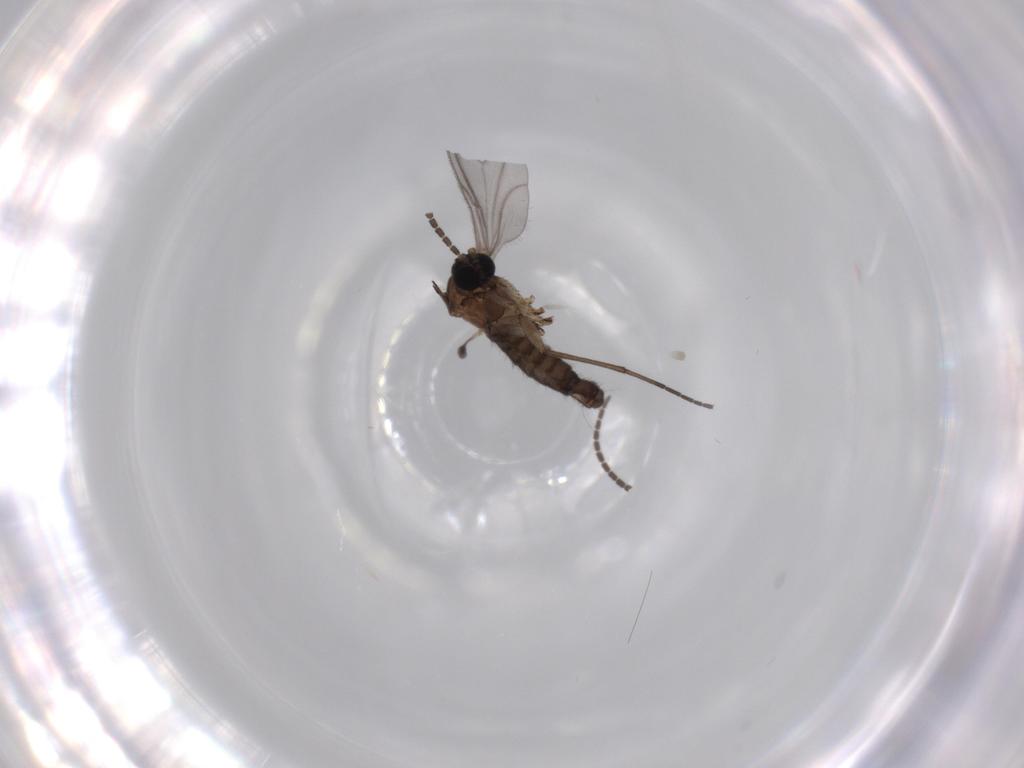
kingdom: Animalia
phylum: Arthropoda
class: Insecta
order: Diptera
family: Sciaridae
